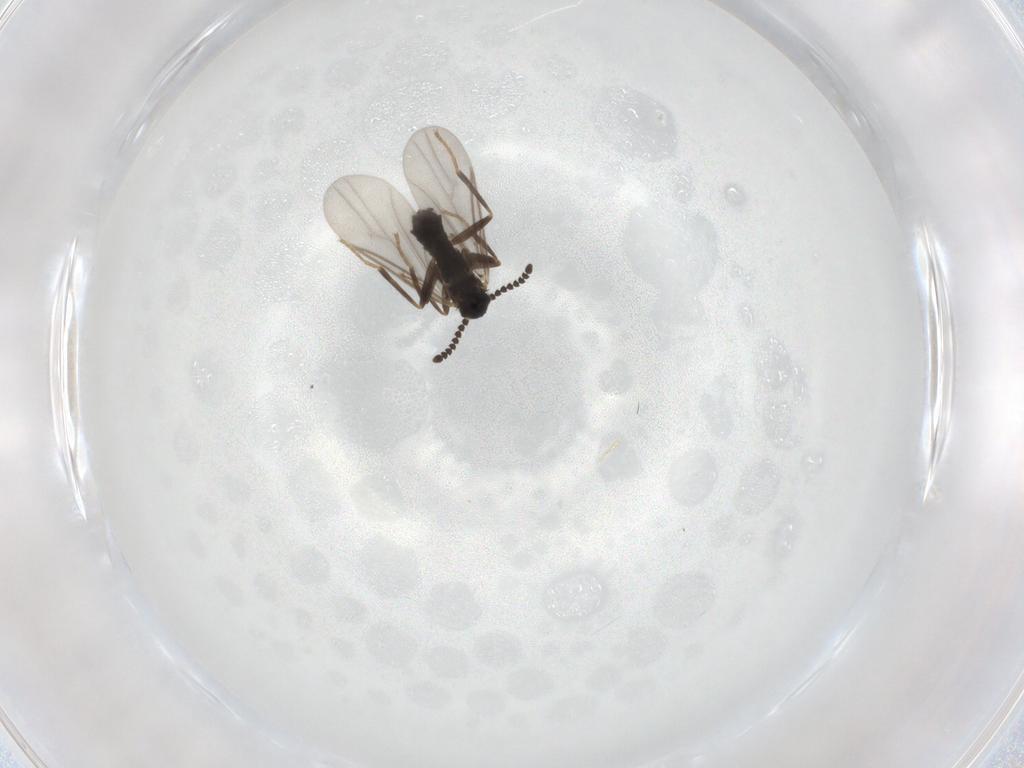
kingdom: Animalia
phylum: Arthropoda
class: Insecta
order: Diptera
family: Scatopsidae
